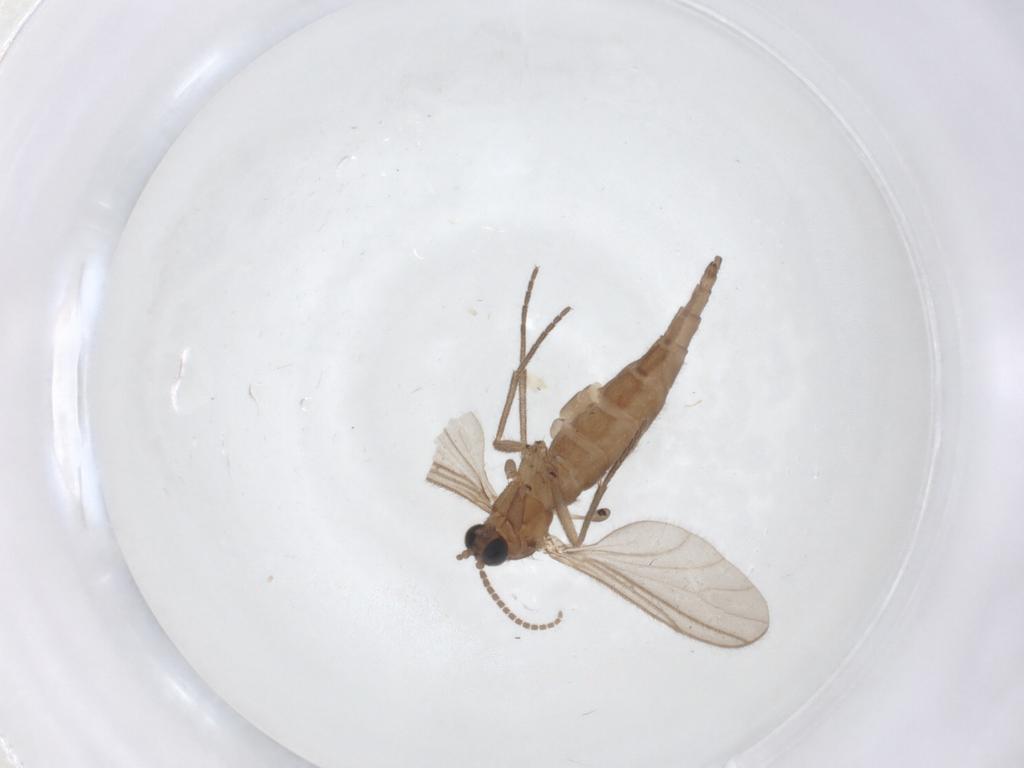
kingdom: Animalia
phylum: Arthropoda
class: Insecta
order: Diptera
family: Sciaridae
